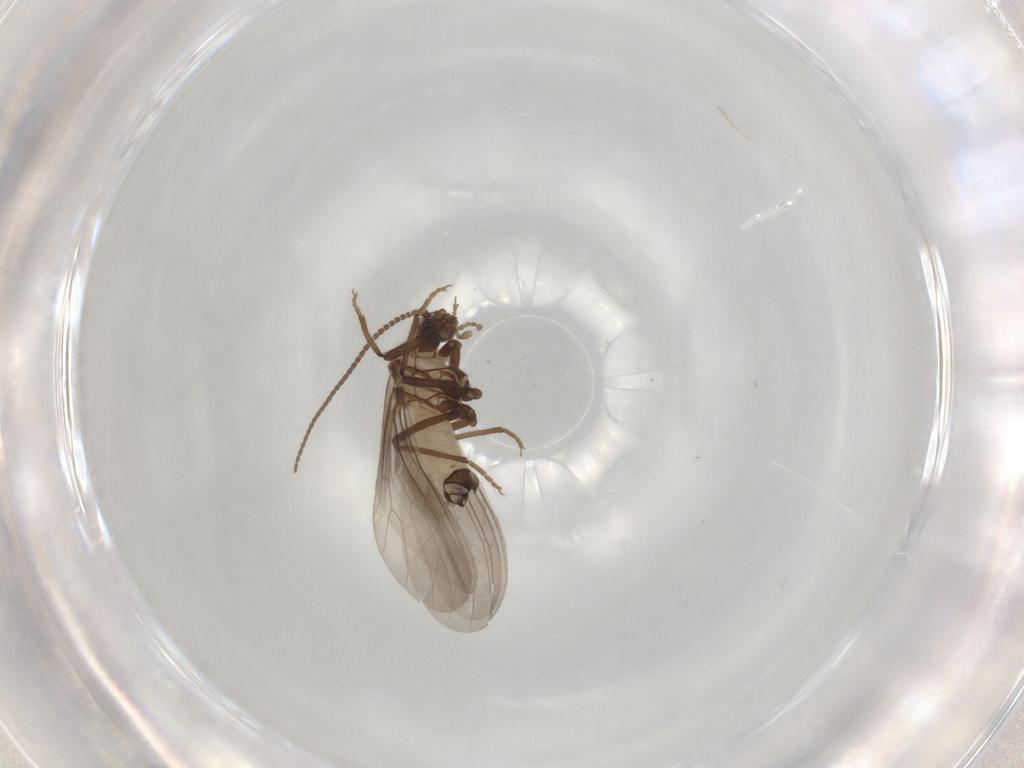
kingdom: Animalia
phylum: Arthropoda
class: Insecta
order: Neuroptera
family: Coniopterygidae
